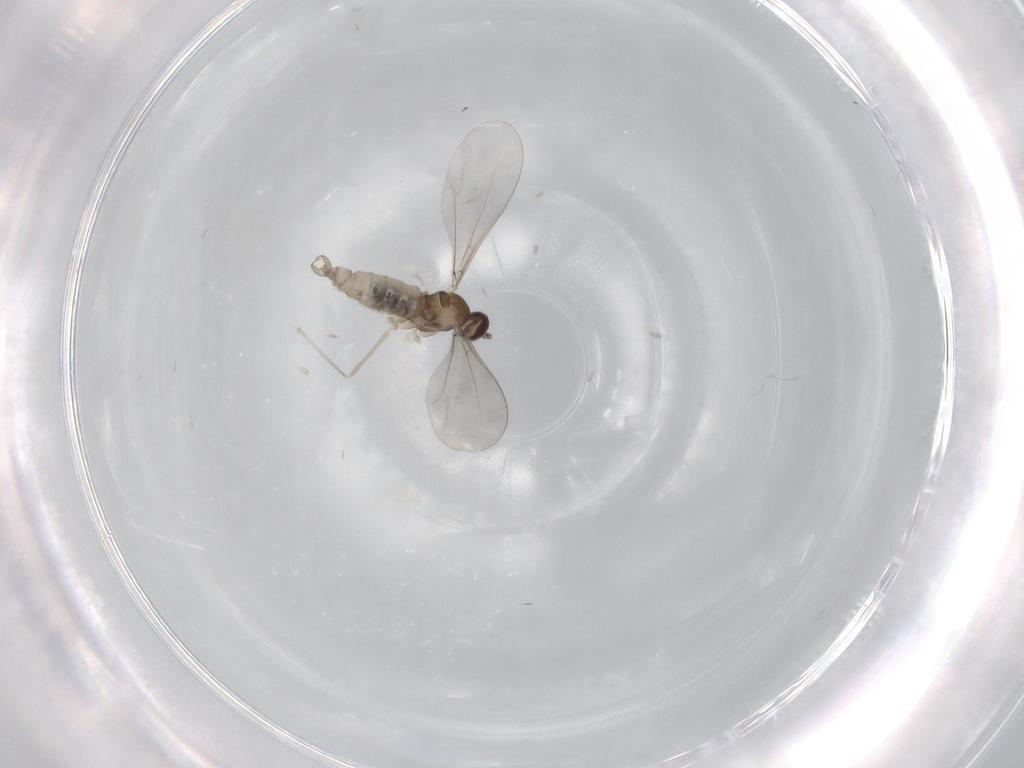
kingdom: Animalia
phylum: Arthropoda
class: Insecta
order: Diptera
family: Cecidomyiidae
